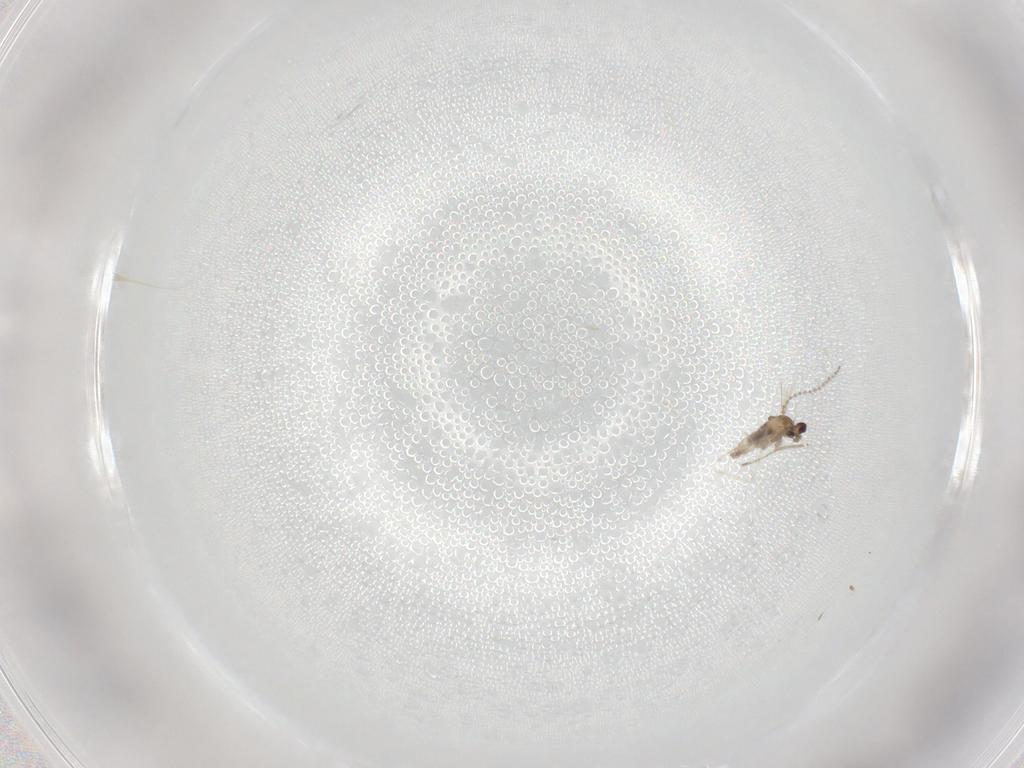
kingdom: Animalia
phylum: Arthropoda
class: Insecta
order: Diptera
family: Cecidomyiidae
